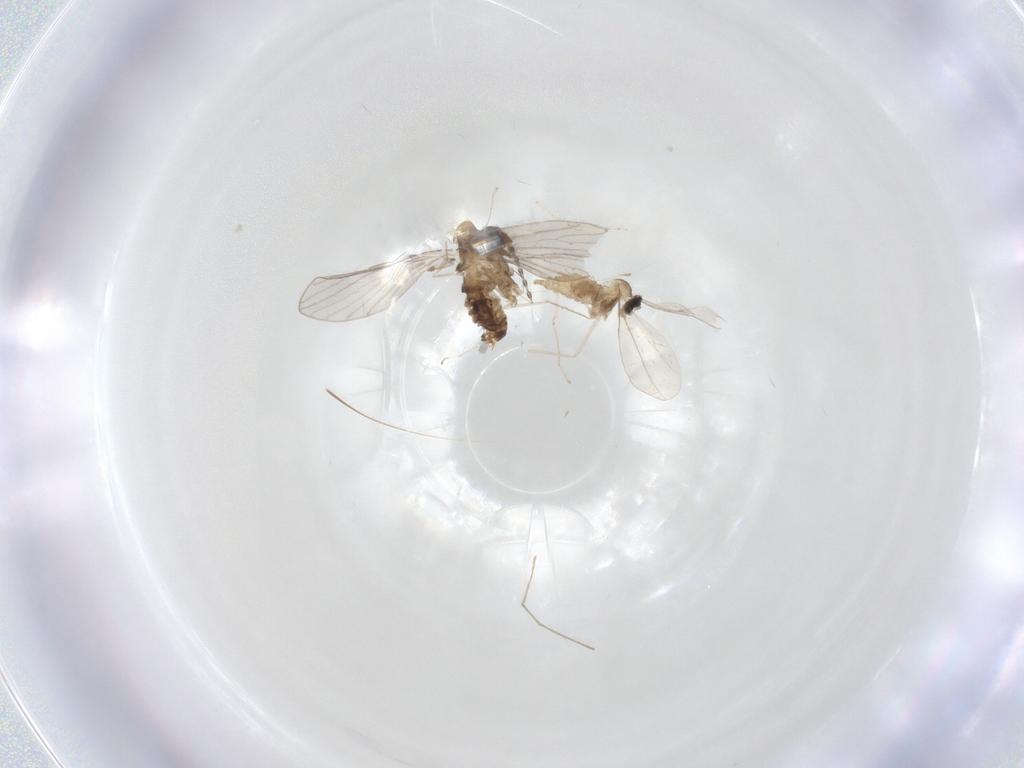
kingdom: Animalia
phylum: Arthropoda
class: Insecta
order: Diptera
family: Chironomidae
